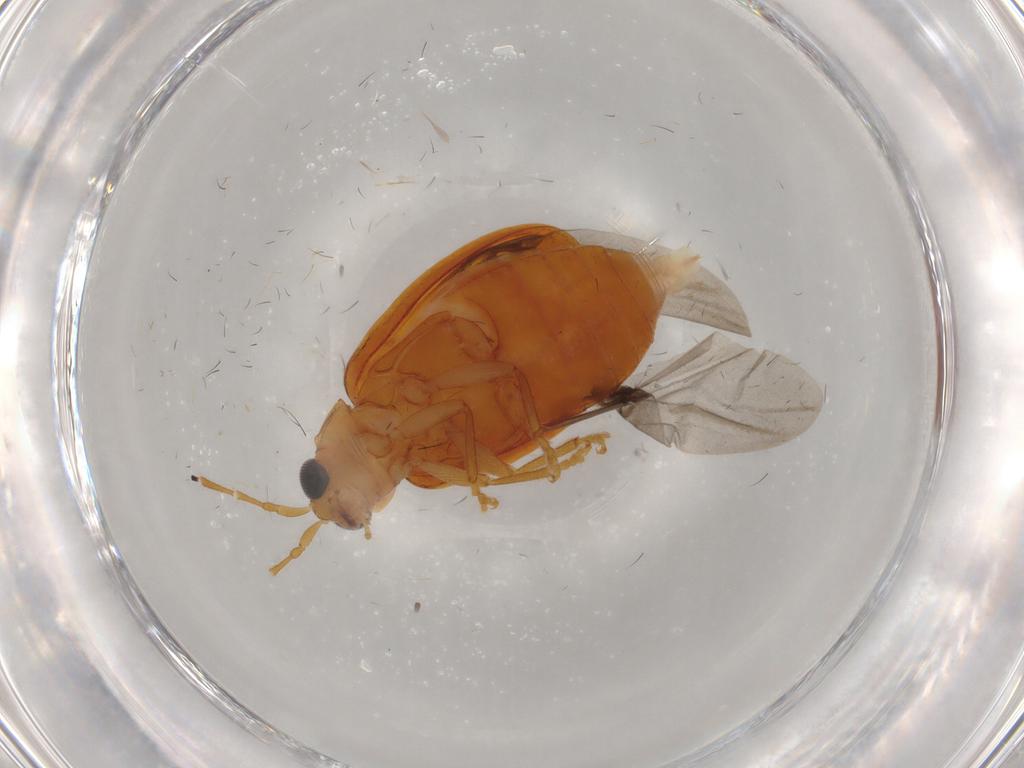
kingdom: Animalia
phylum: Arthropoda
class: Insecta
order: Coleoptera
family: Chrysomelidae
